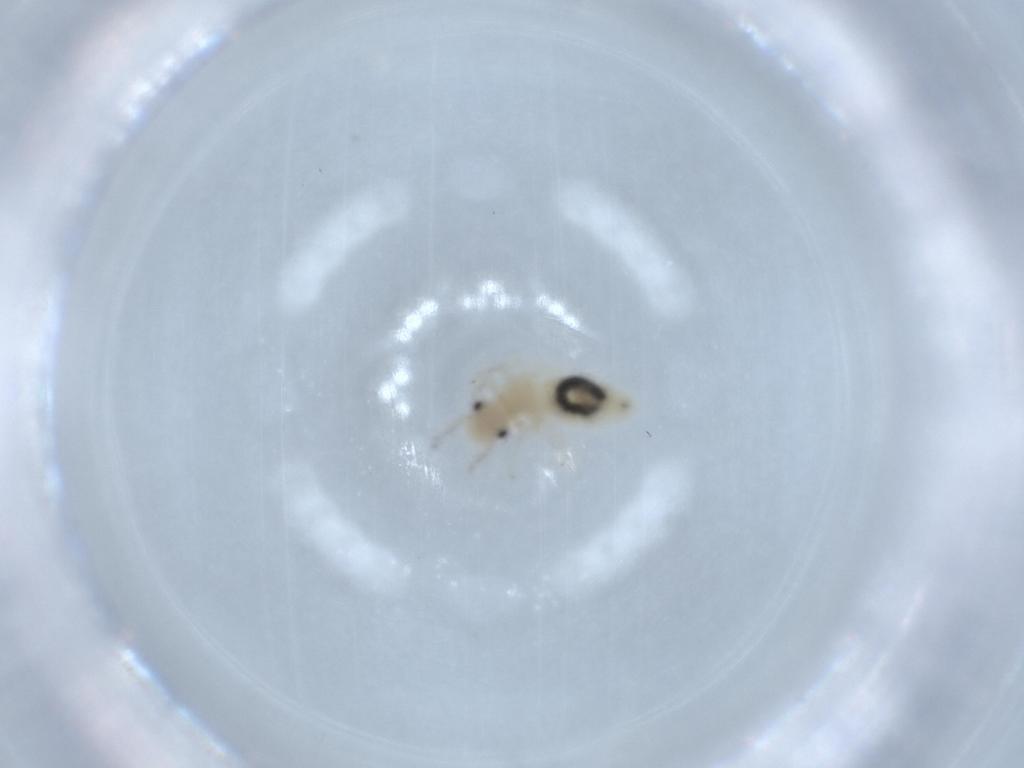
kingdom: Animalia
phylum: Arthropoda
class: Insecta
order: Psocodea
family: Caeciliusidae
